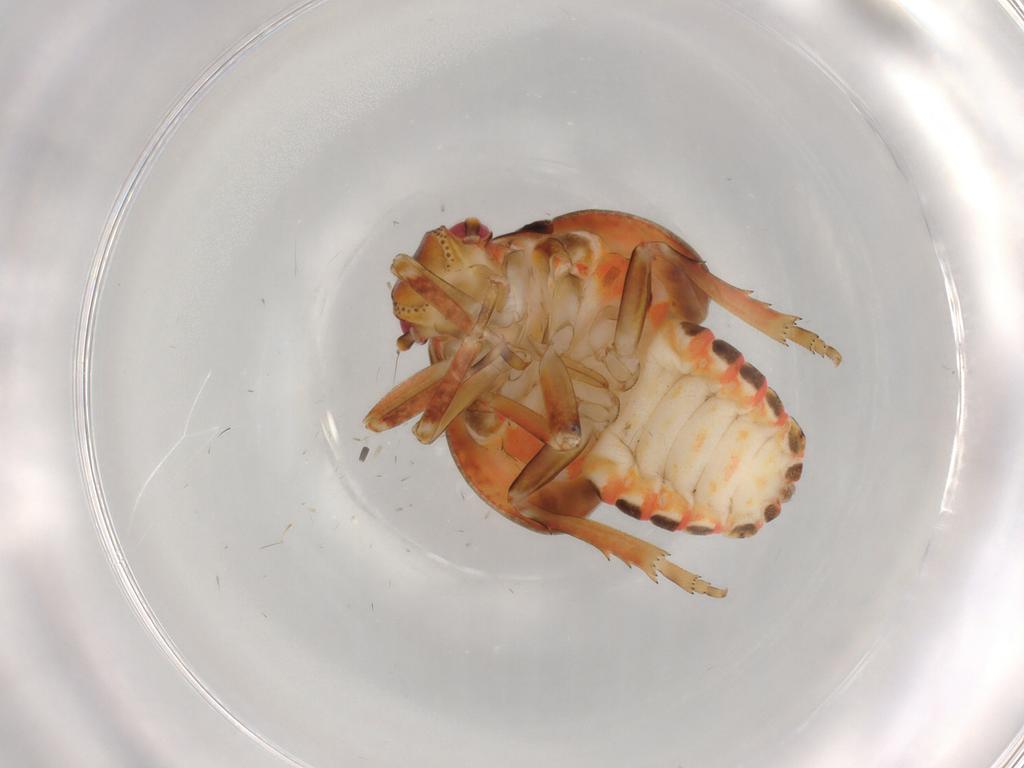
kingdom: Animalia
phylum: Arthropoda
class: Insecta
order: Hemiptera
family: Flatidae
